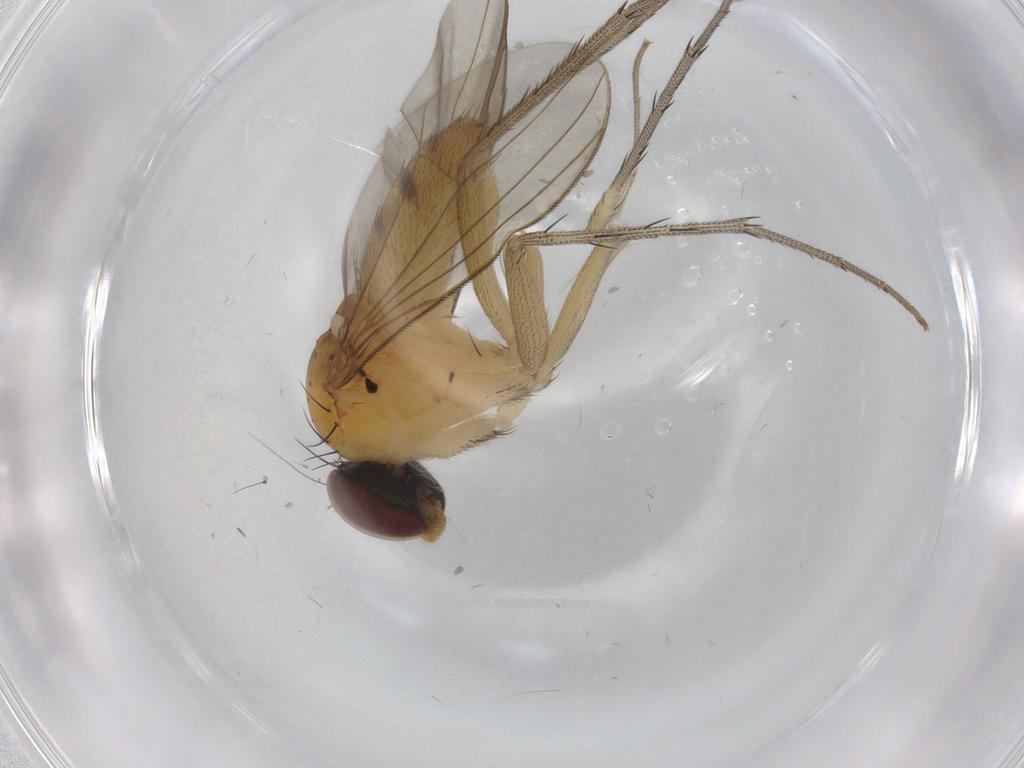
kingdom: Animalia
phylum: Arthropoda
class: Insecta
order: Diptera
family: Dolichopodidae
